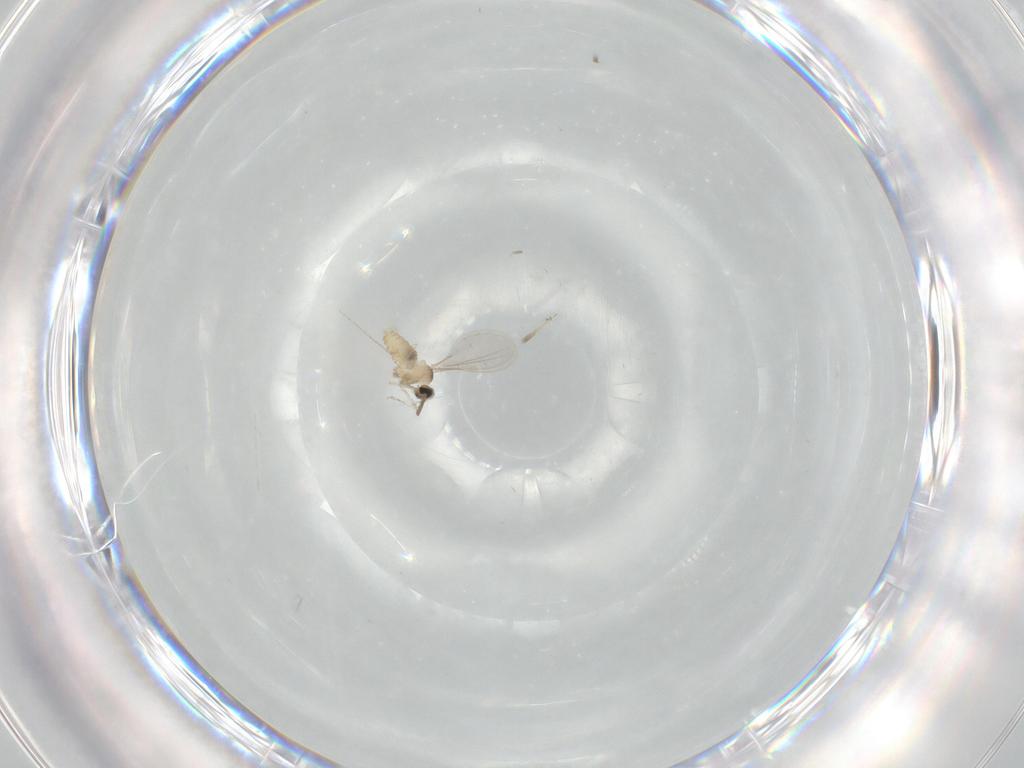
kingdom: Animalia
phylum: Arthropoda
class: Insecta
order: Diptera
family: Cecidomyiidae
